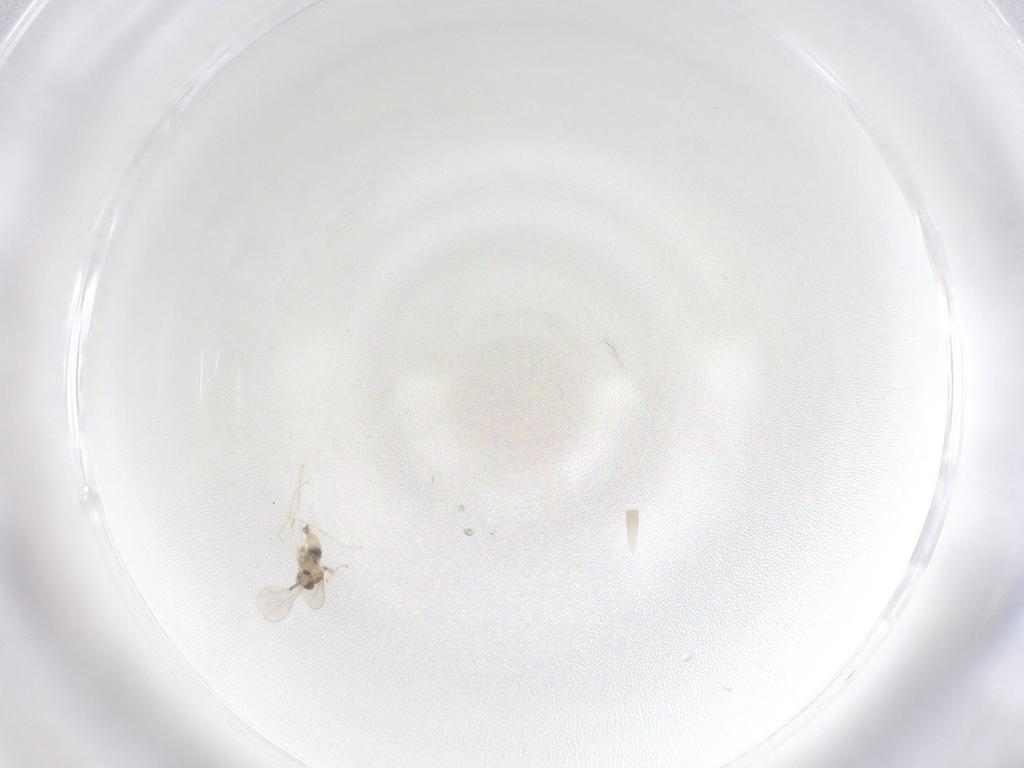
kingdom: Animalia
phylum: Arthropoda
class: Insecta
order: Diptera
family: Cecidomyiidae
